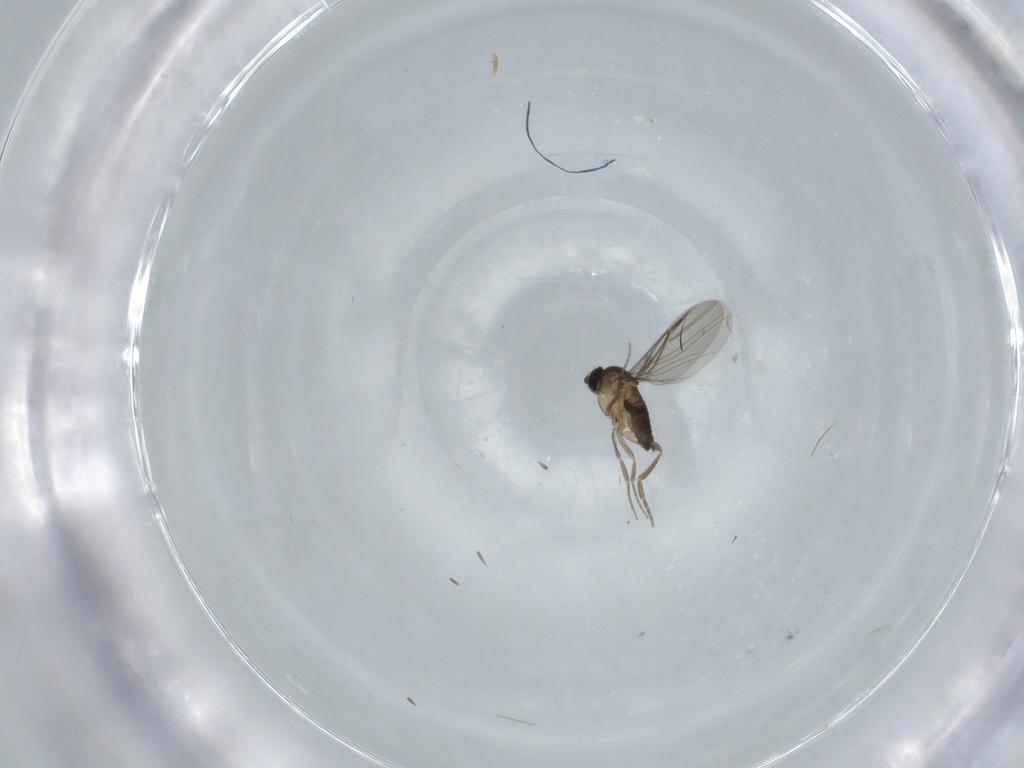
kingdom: Animalia
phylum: Arthropoda
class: Insecta
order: Diptera
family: Phoridae
